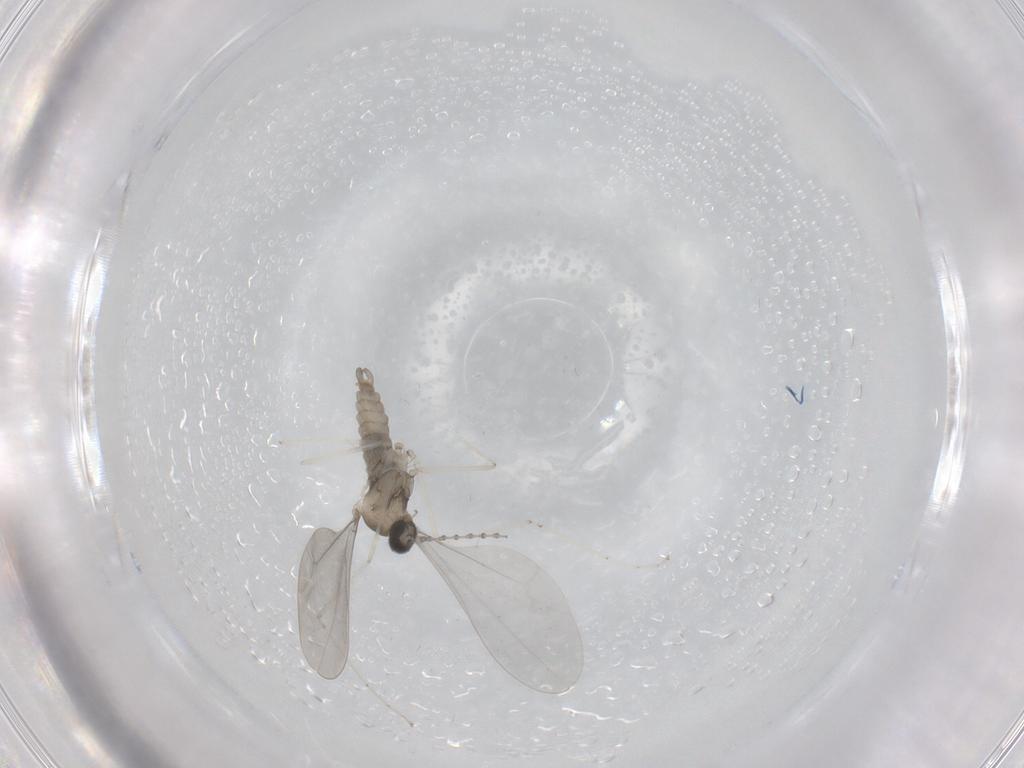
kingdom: Animalia
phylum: Arthropoda
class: Insecta
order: Diptera
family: Cecidomyiidae
